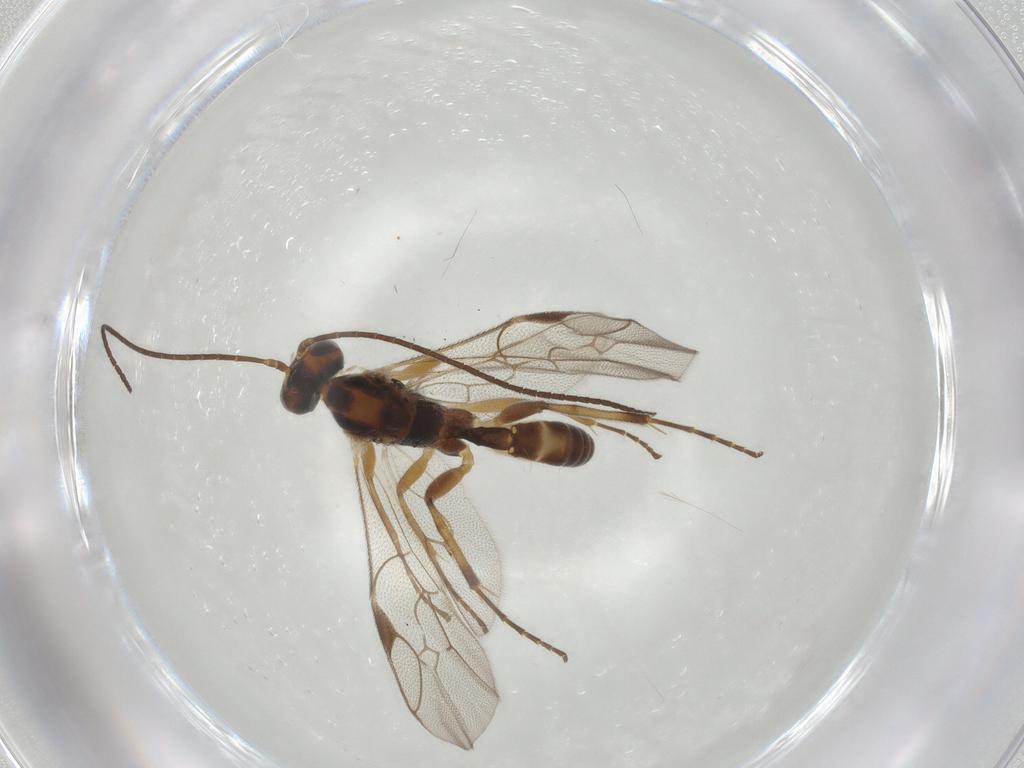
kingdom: Animalia
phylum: Arthropoda
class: Insecta
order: Hymenoptera
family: Ichneumonidae
